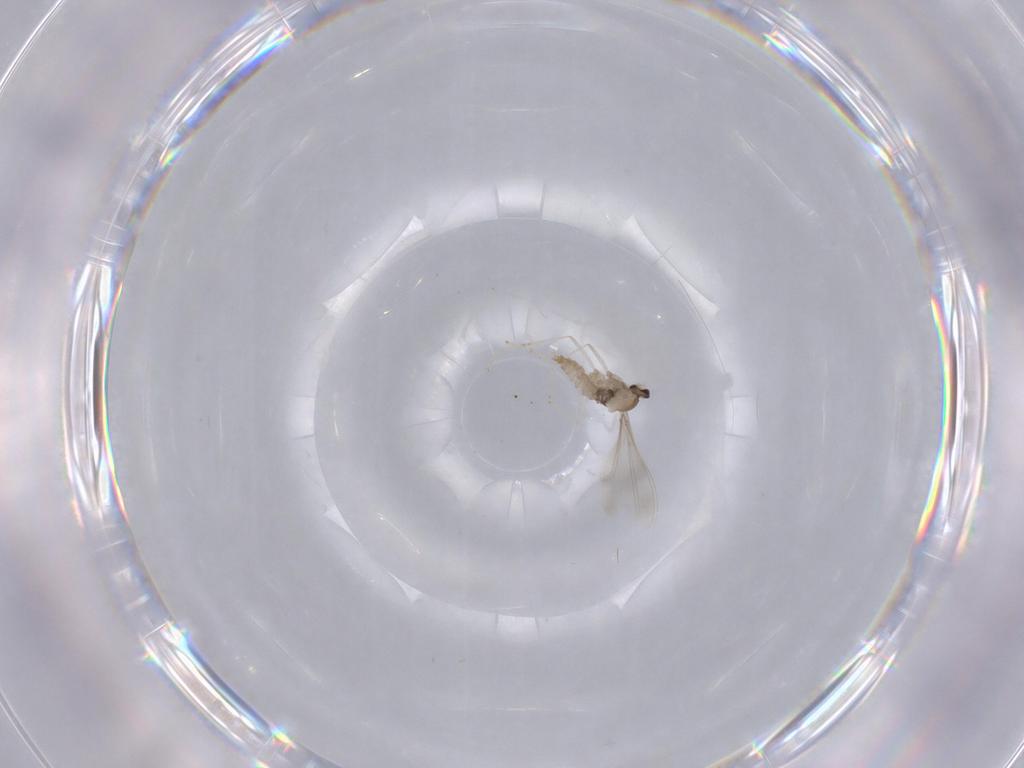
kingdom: Animalia
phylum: Arthropoda
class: Insecta
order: Diptera
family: Cecidomyiidae
